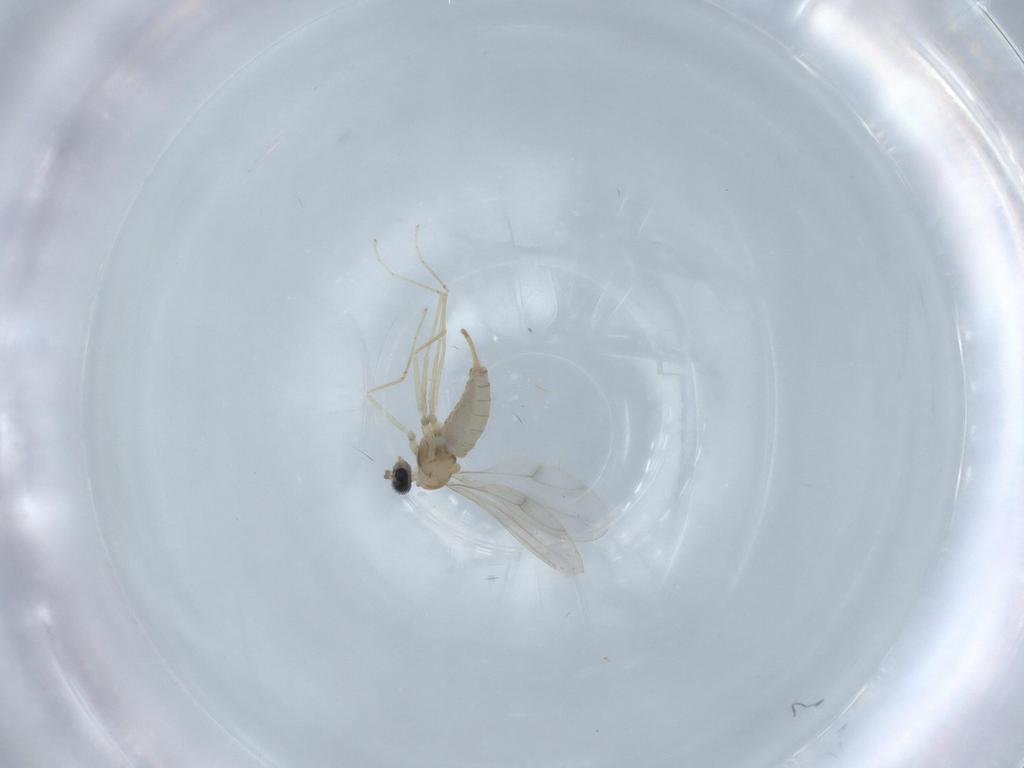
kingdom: Animalia
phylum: Arthropoda
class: Insecta
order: Diptera
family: Cecidomyiidae
